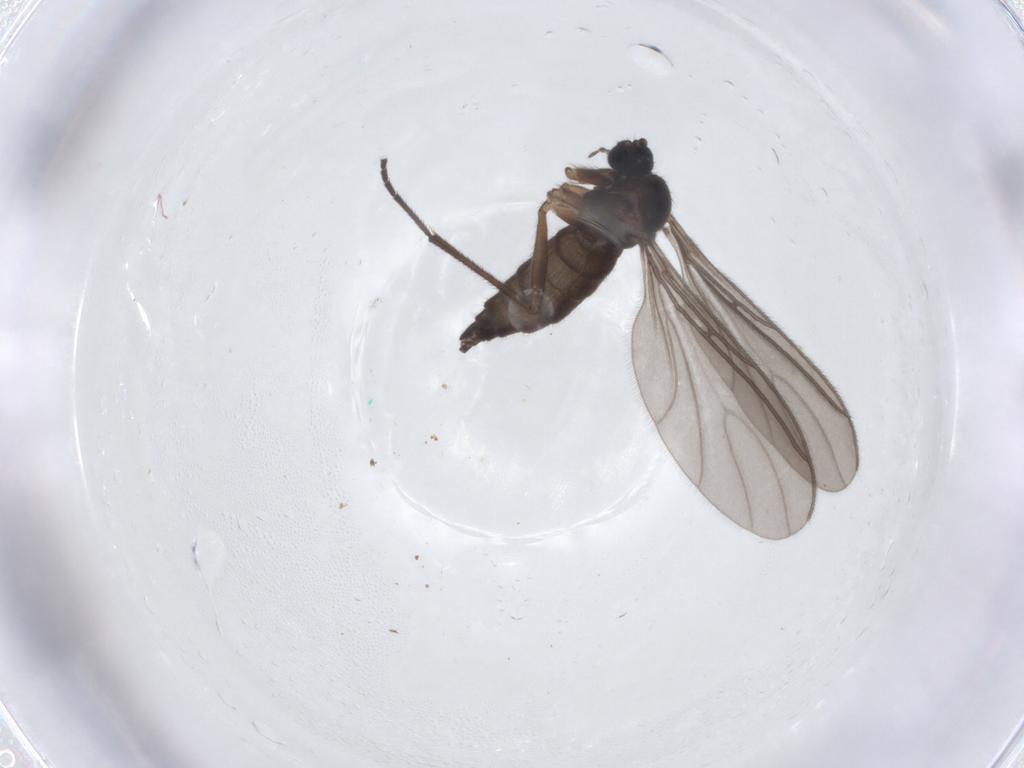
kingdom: Animalia
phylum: Arthropoda
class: Insecta
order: Diptera
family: Sciaridae
